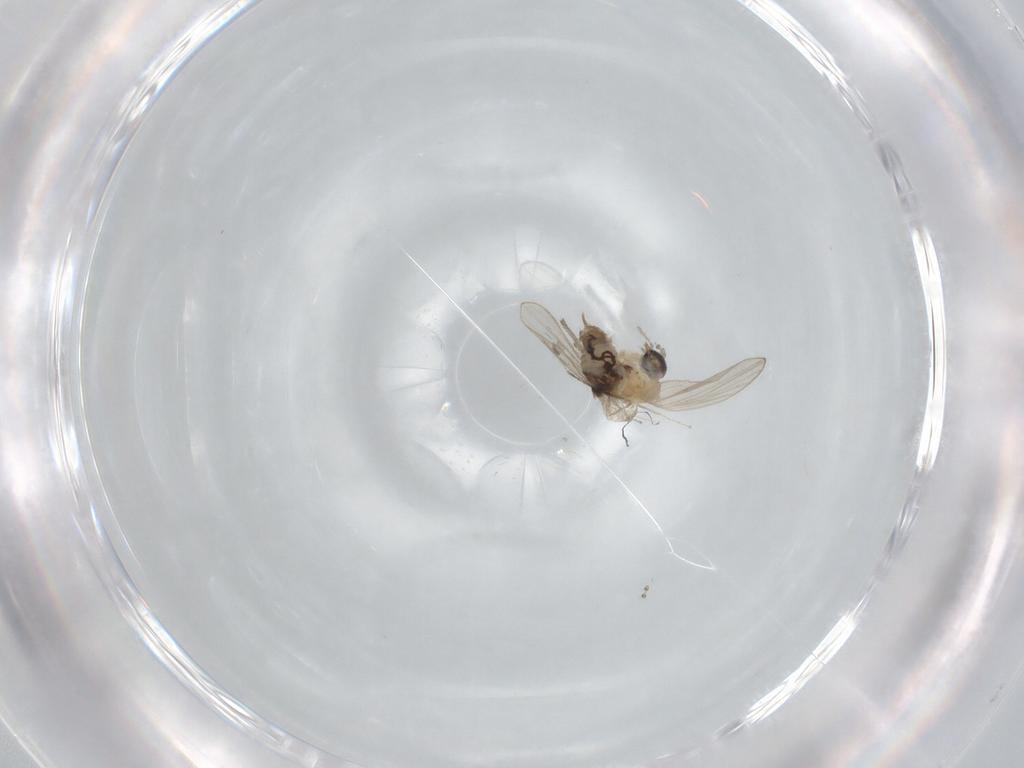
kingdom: Animalia
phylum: Arthropoda
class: Insecta
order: Diptera
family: Psychodidae
